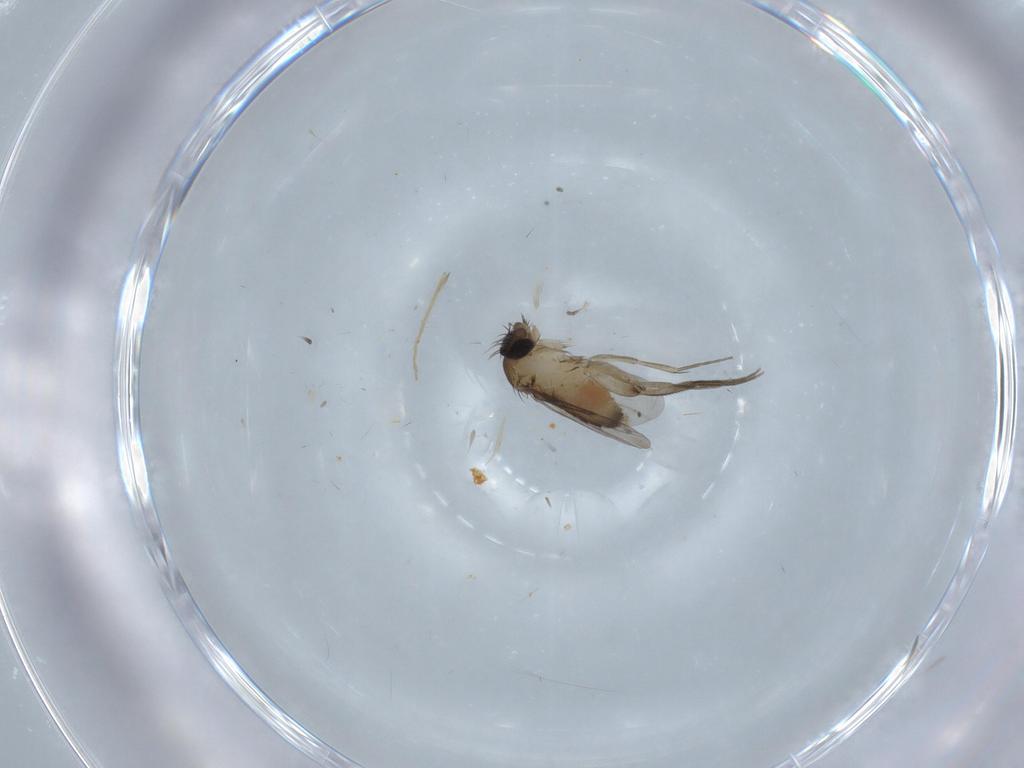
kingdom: Animalia
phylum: Arthropoda
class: Insecta
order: Diptera
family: Phoridae
